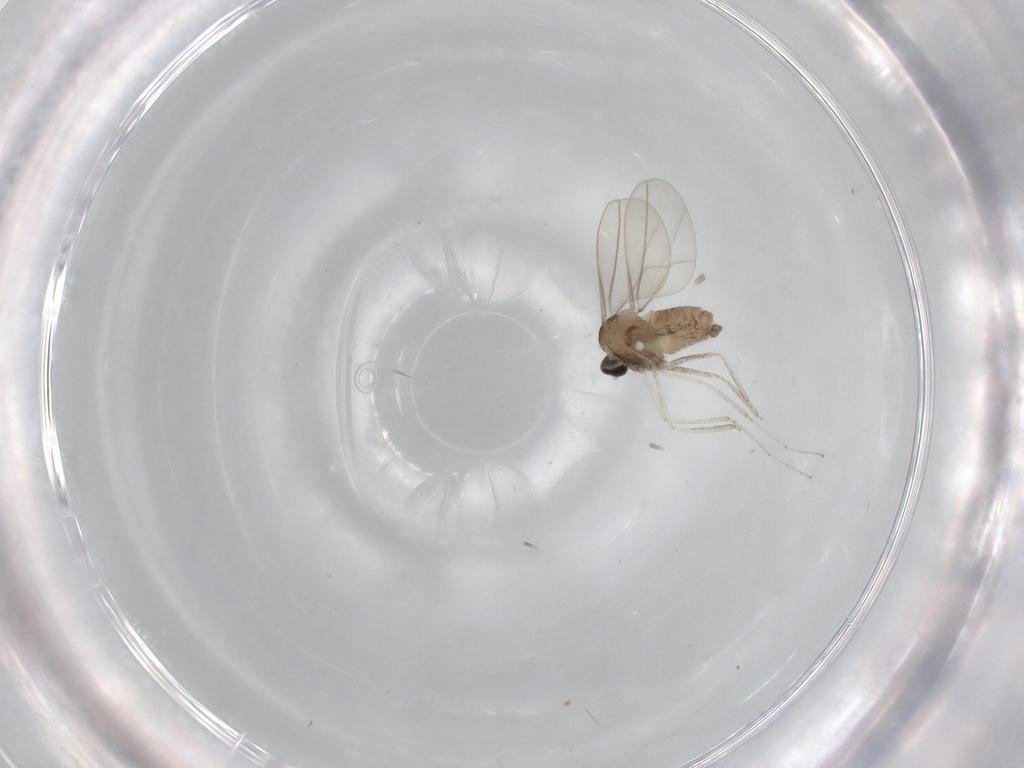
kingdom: Animalia
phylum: Arthropoda
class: Insecta
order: Diptera
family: Cecidomyiidae
